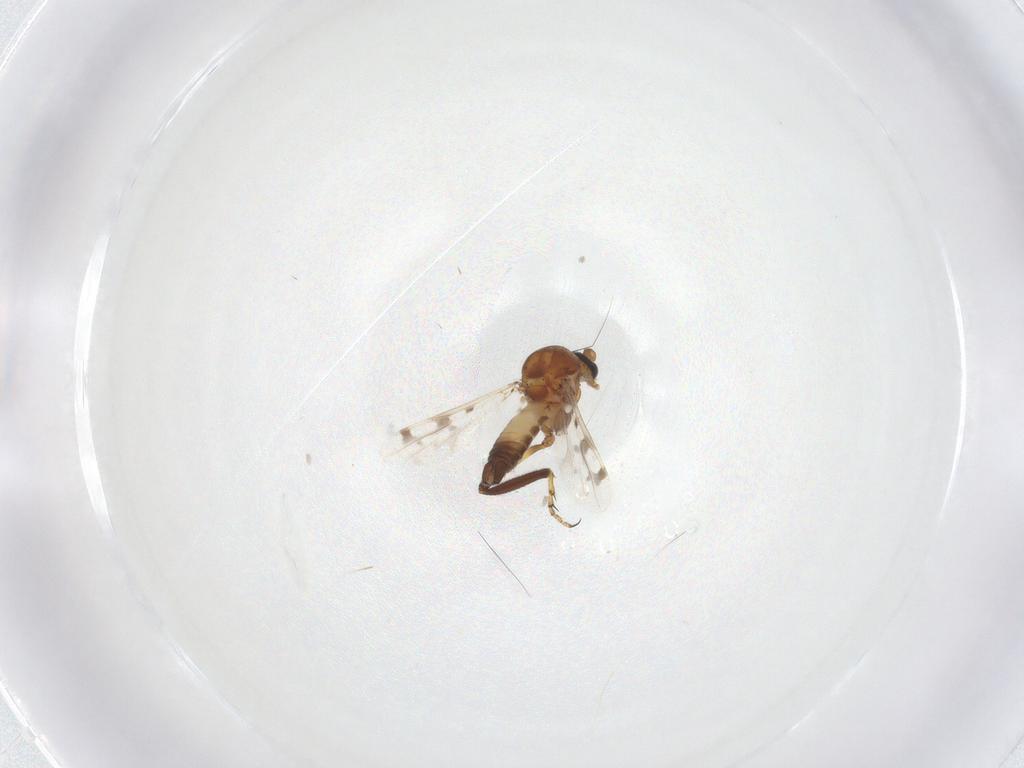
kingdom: Animalia
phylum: Arthropoda
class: Insecta
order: Diptera
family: Ceratopogonidae
